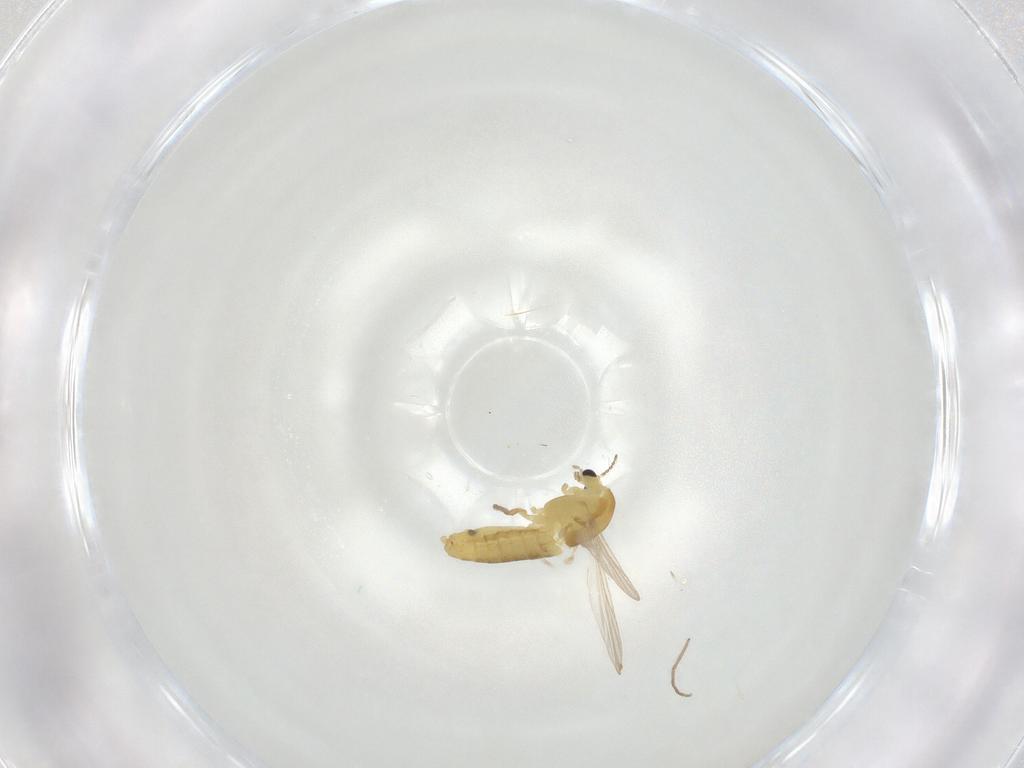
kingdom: Animalia
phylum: Arthropoda
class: Insecta
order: Diptera
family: Chironomidae
